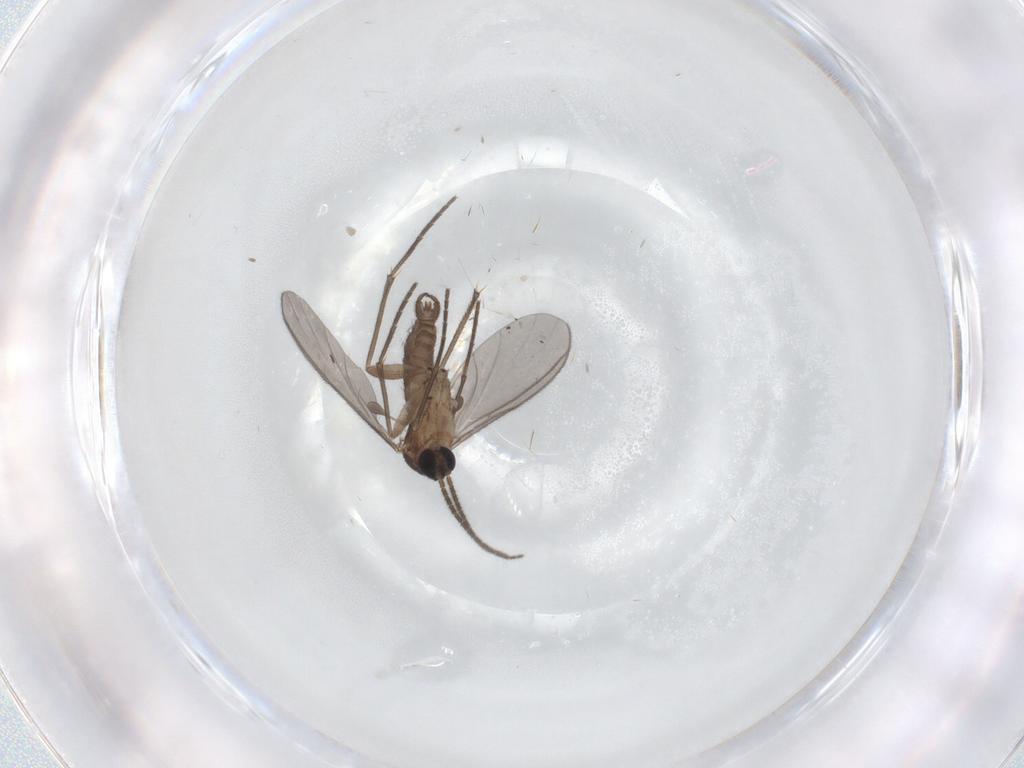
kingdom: Animalia
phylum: Arthropoda
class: Insecta
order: Diptera
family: Sciaridae
